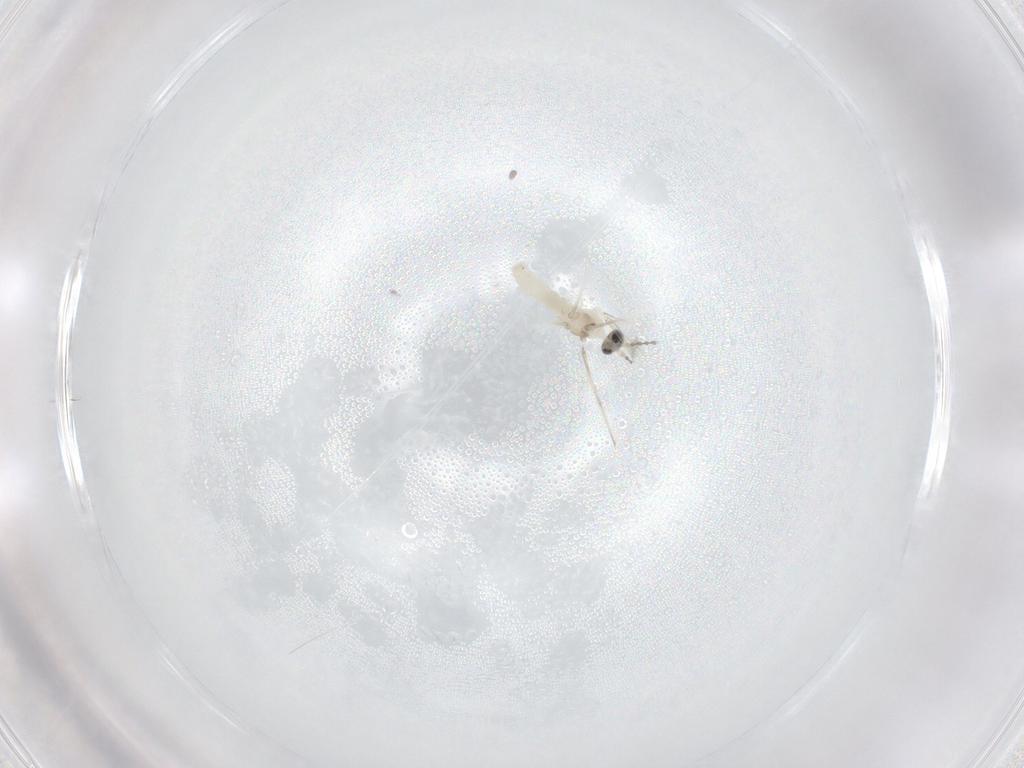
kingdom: Animalia
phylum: Arthropoda
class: Insecta
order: Diptera
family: Cecidomyiidae
